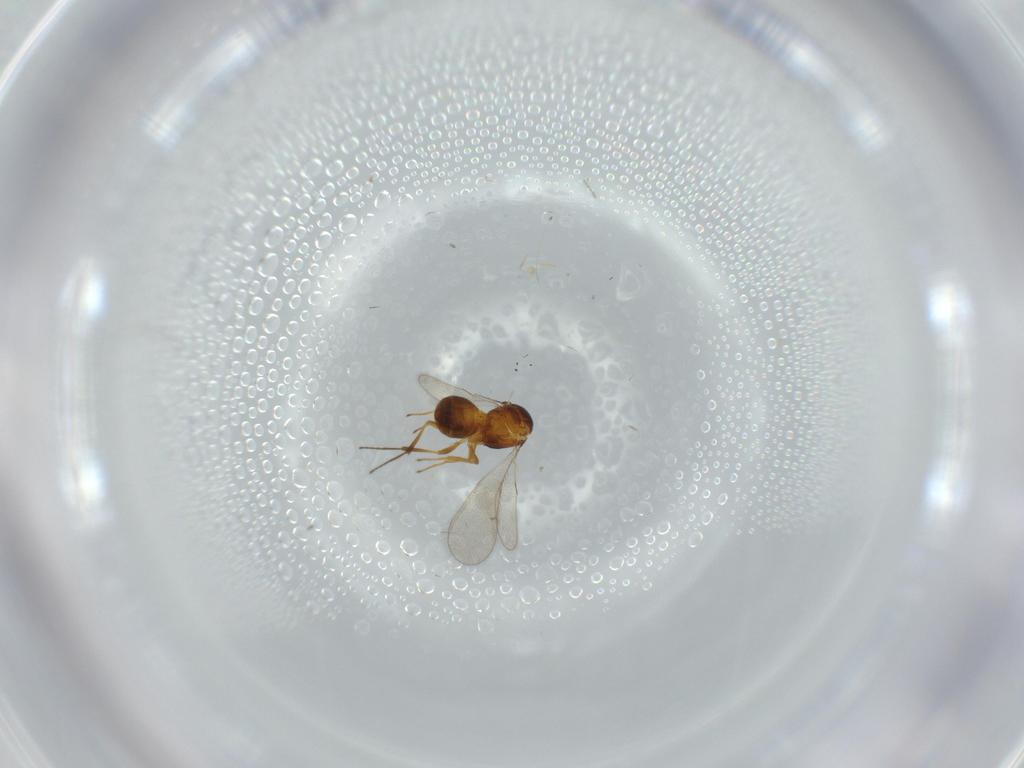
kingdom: Animalia
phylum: Arthropoda
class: Insecta
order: Hymenoptera
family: Scelionidae
